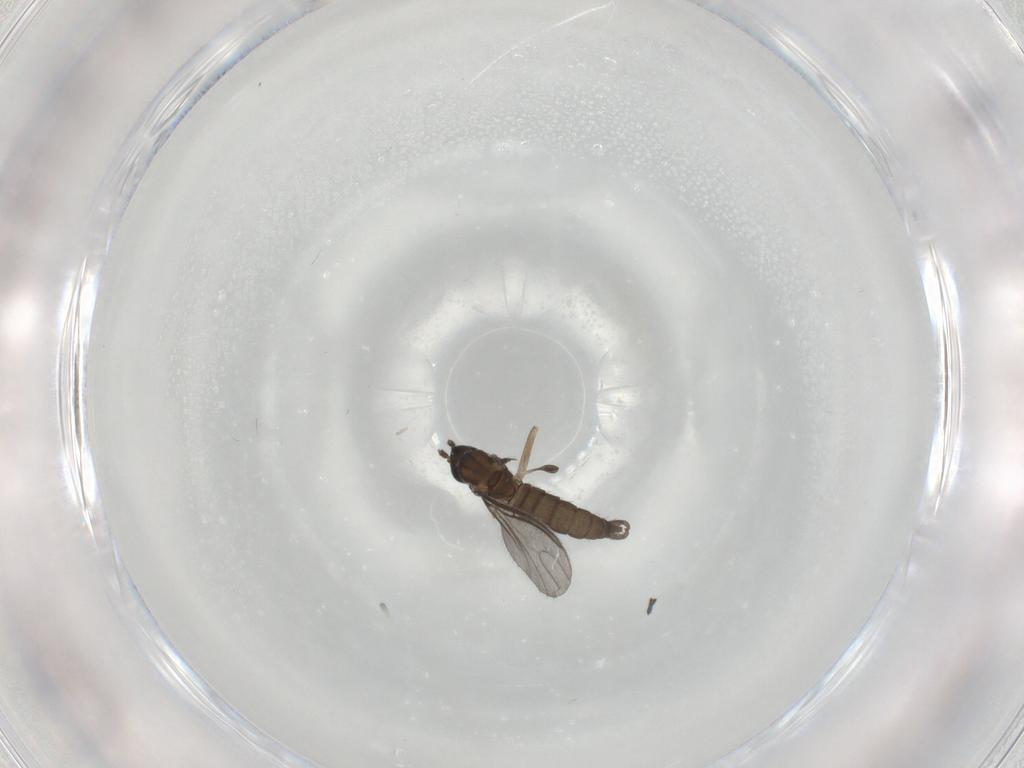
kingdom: Animalia
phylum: Arthropoda
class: Insecta
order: Diptera
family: Sciaridae
